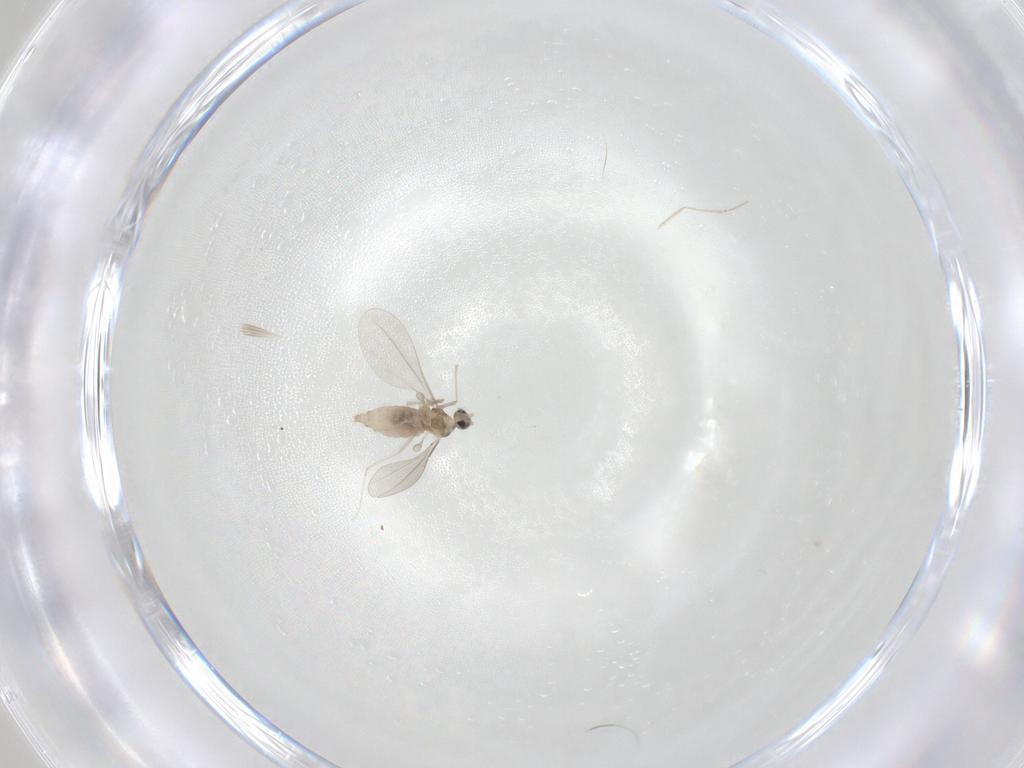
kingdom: Animalia
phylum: Arthropoda
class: Insecta
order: Diptera
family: Cecidomyiidae
